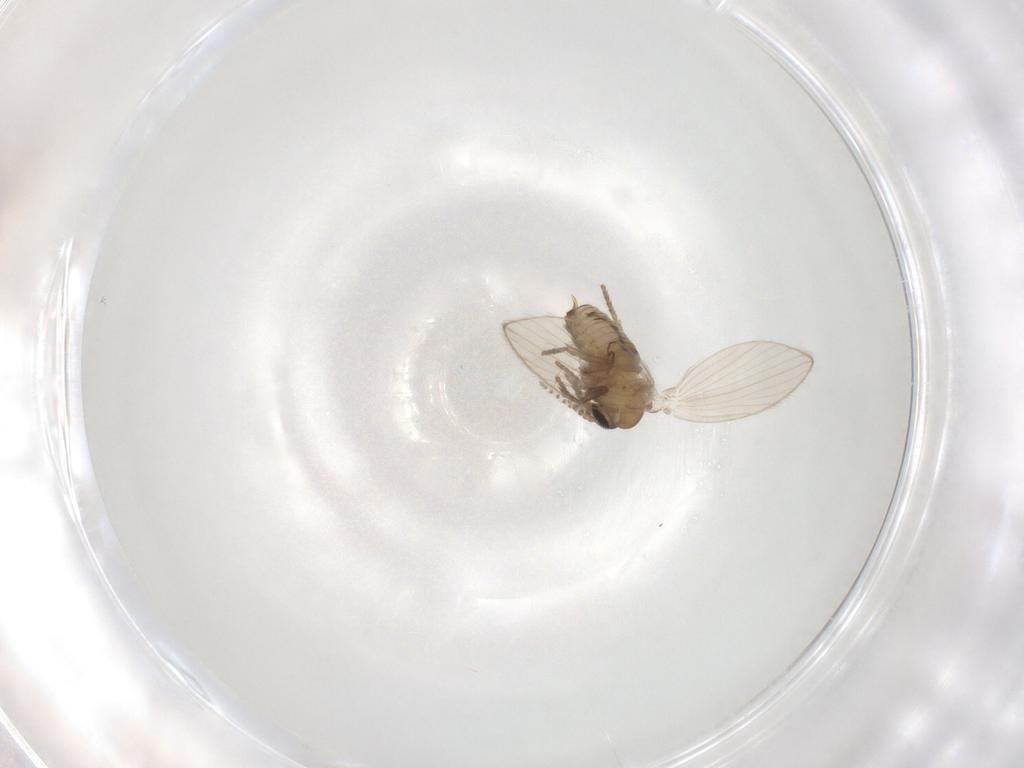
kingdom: Animalia
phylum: Arthropoda
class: Insecta
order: Diptera
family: Psychodidae
